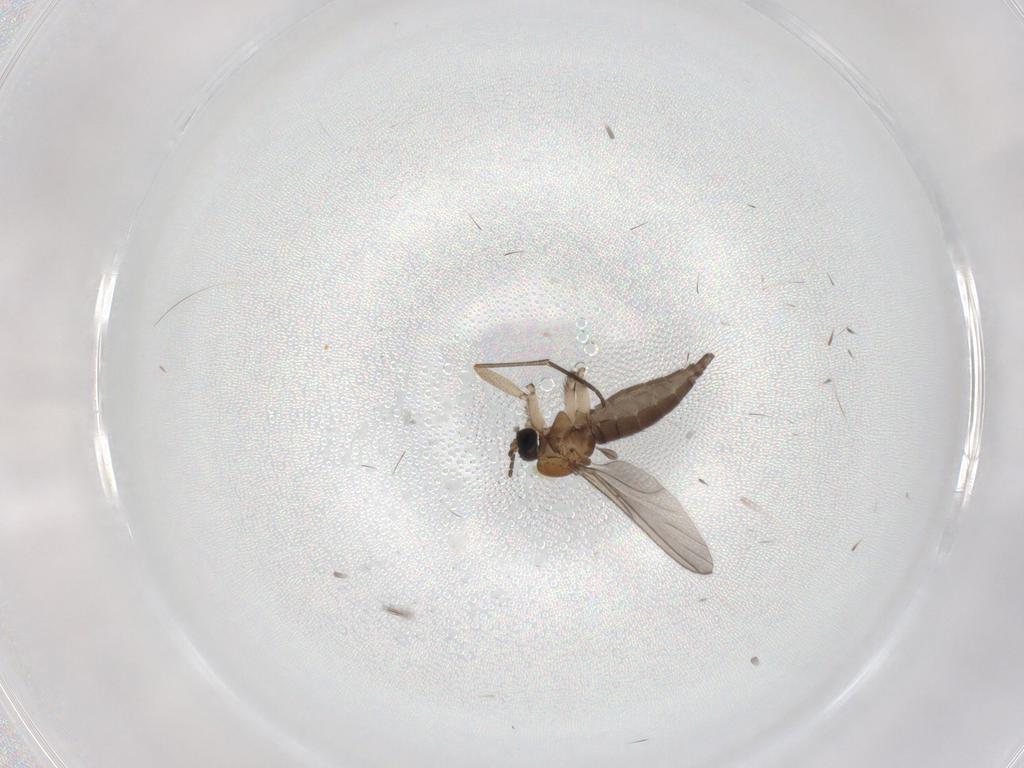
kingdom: Animalia
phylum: Arthropoda
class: Insecta
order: Diptera
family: Sciaridae
